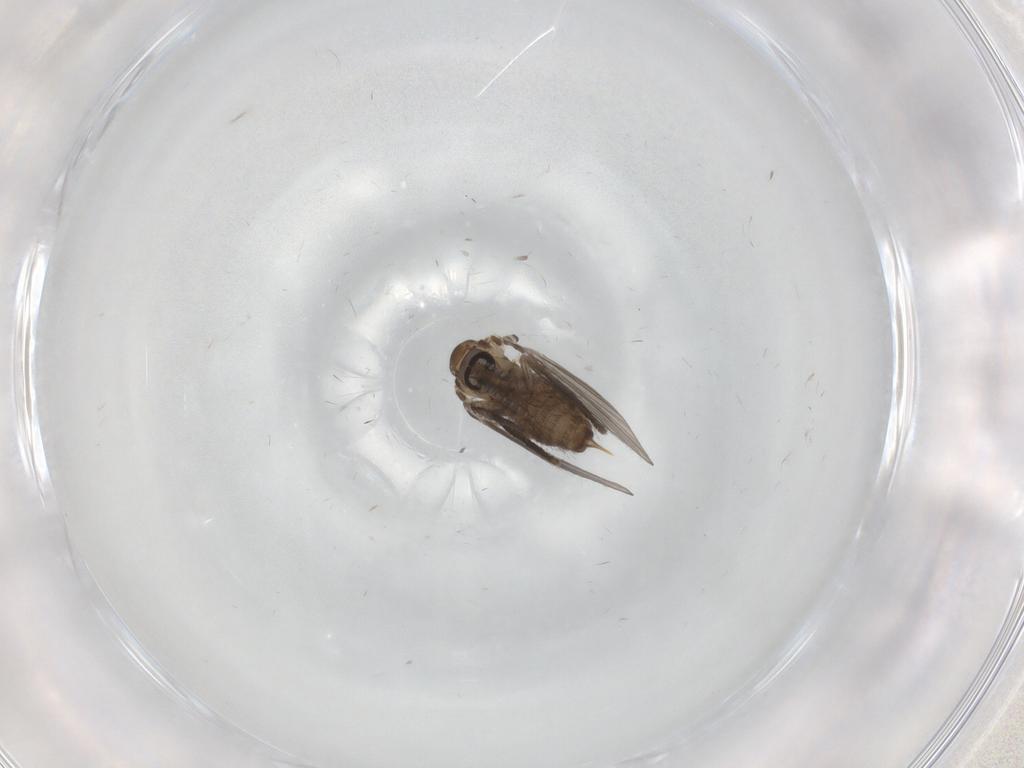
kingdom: Animalia
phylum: Arthropoda
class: Insecta
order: Diptera
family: Psychodidae
